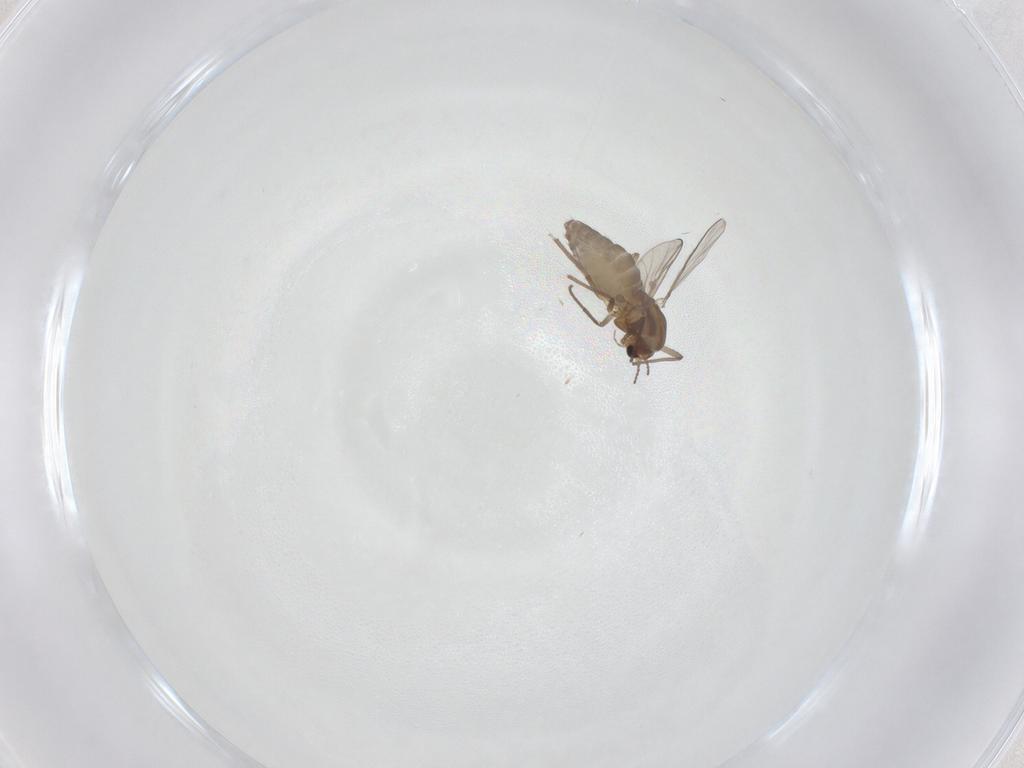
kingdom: Animalia
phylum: Arthropoda
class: Insecta
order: Diptera
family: Chironomidae
